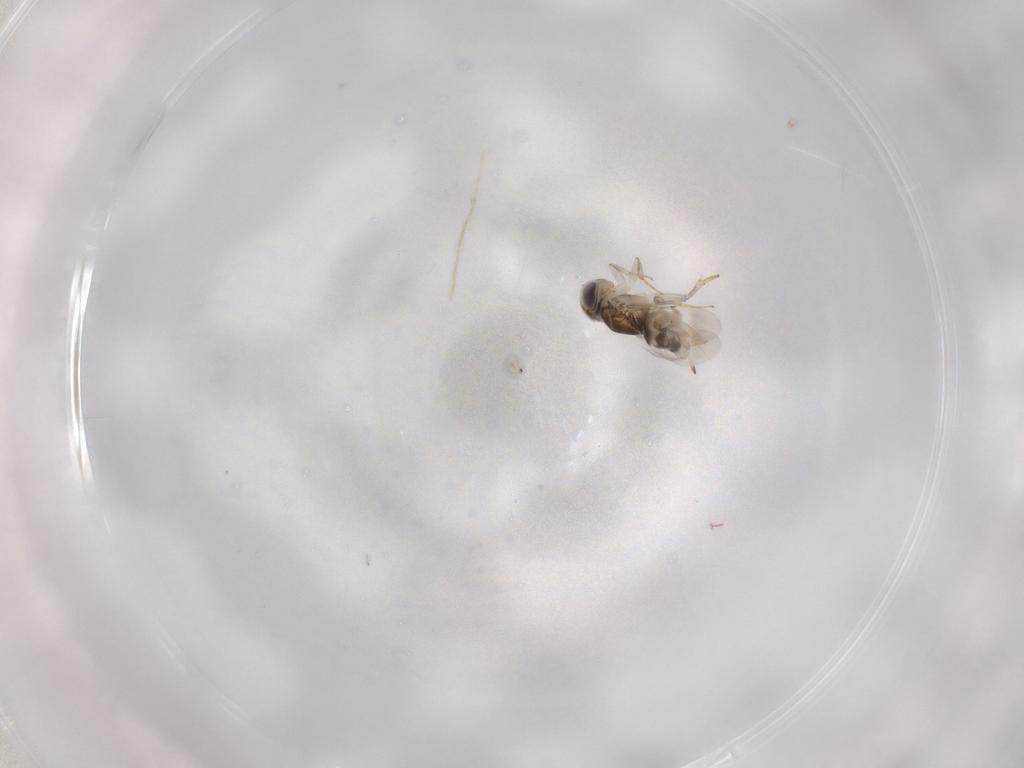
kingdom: Animalia
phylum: Arthropoda
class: Insecta
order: Hymenoptera
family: Encyrtidae
